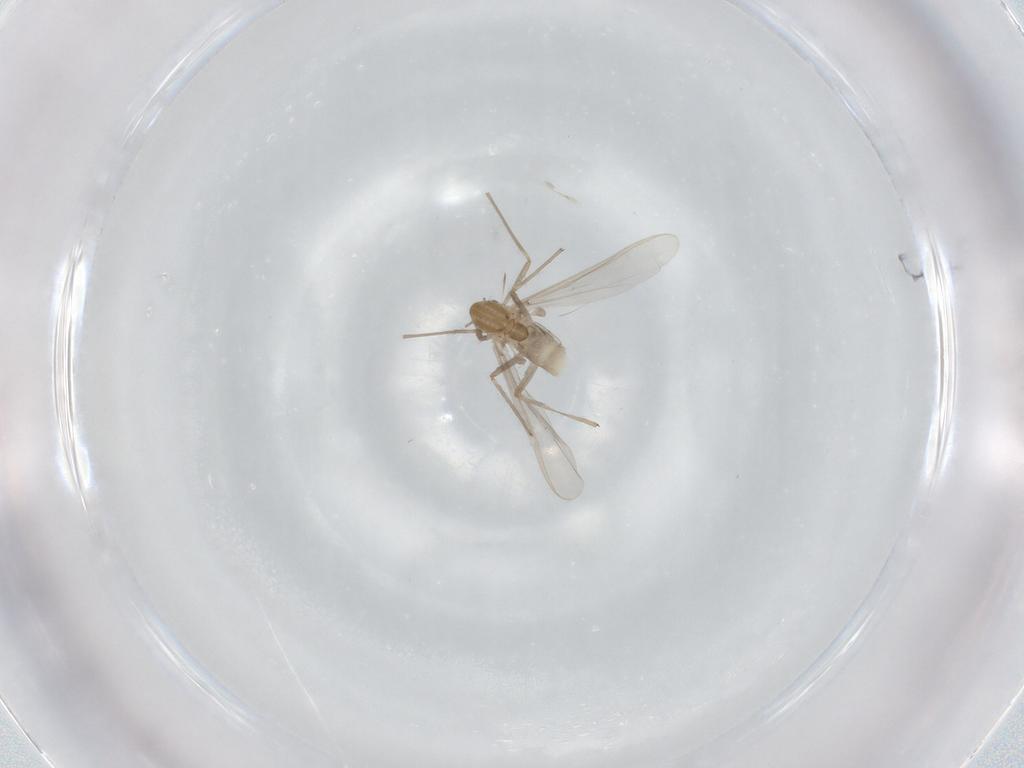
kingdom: Animalia
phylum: Arthropoda
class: Insecta
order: Diptera
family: Chironomidae
